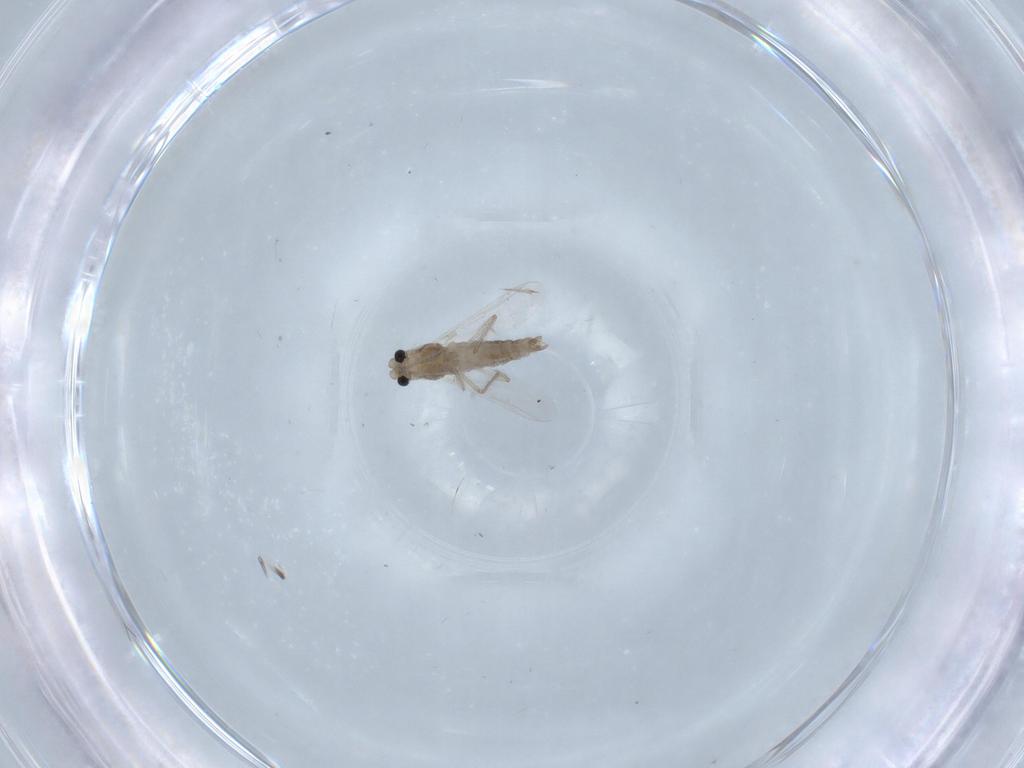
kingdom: Animalia
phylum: Arthropoda
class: Insecta
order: Diptera
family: Chironomidae
